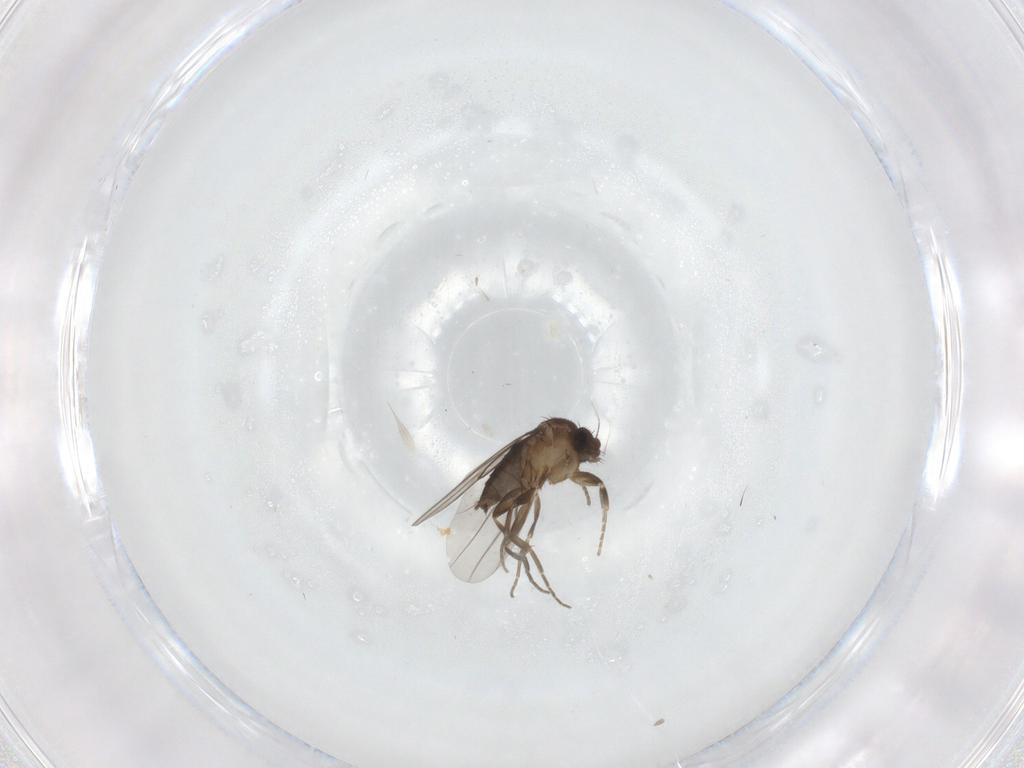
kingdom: Animalia
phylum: Arthropoda
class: Insecta
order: Diptera
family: Phoridae
